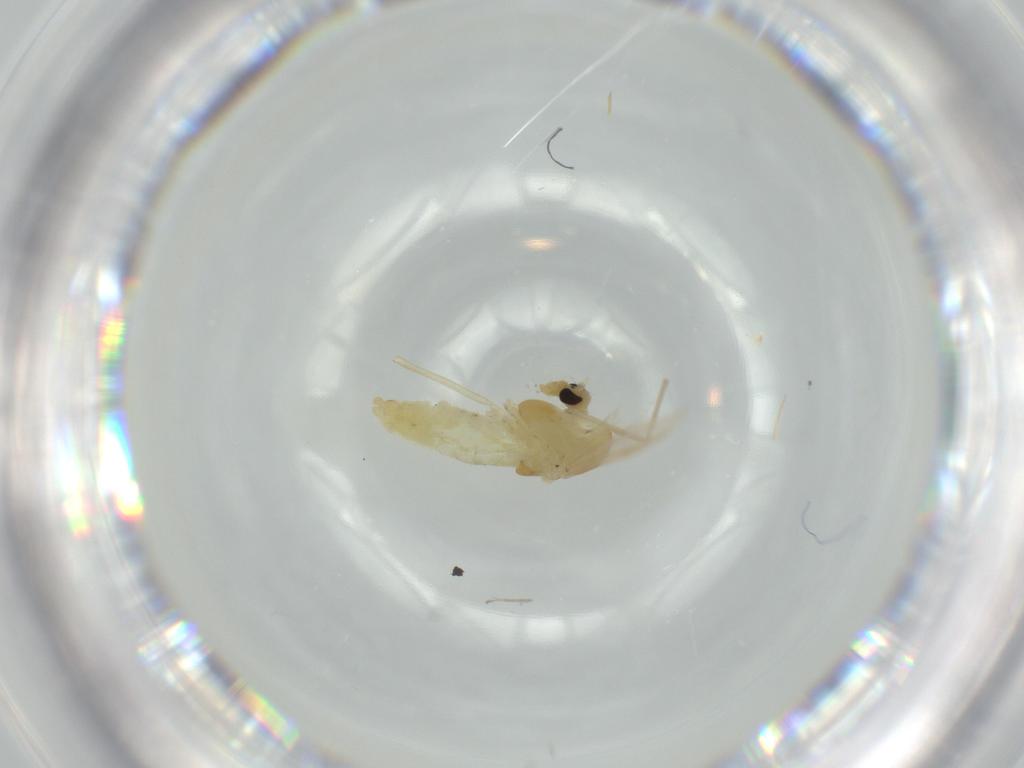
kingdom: Animalia
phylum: Arthropoda
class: Insecta
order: Diptera
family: Chironomidae
